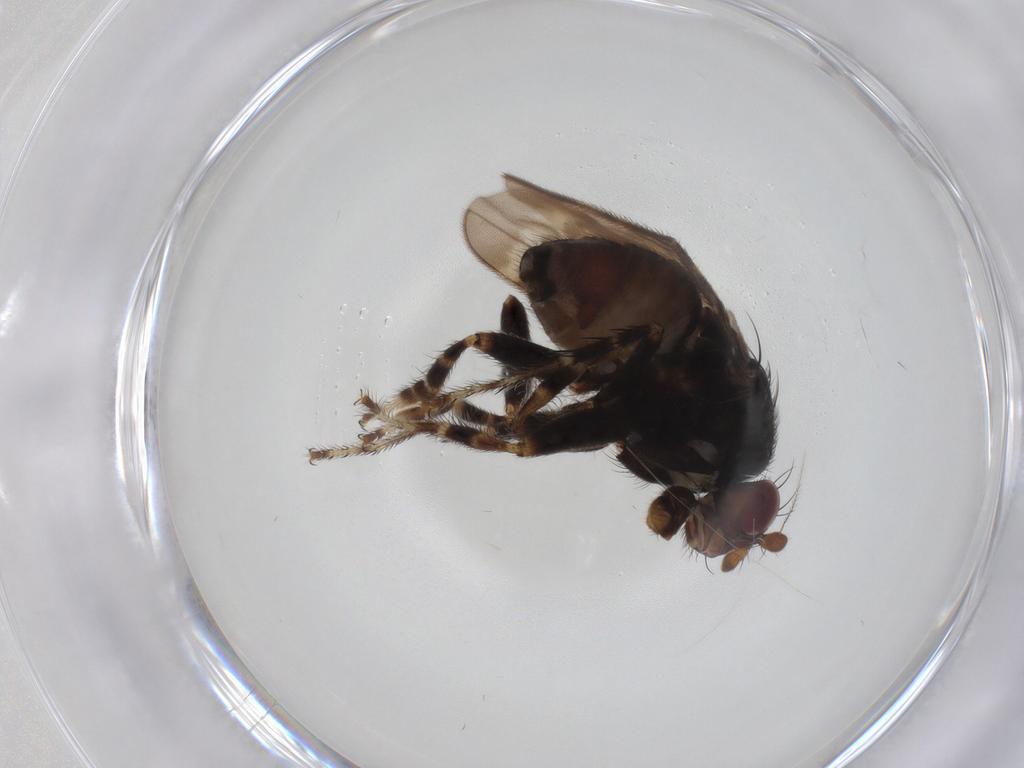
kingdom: Animalia
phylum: Arthropoda
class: Insecta
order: Diptera
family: Sphaeroceridae
